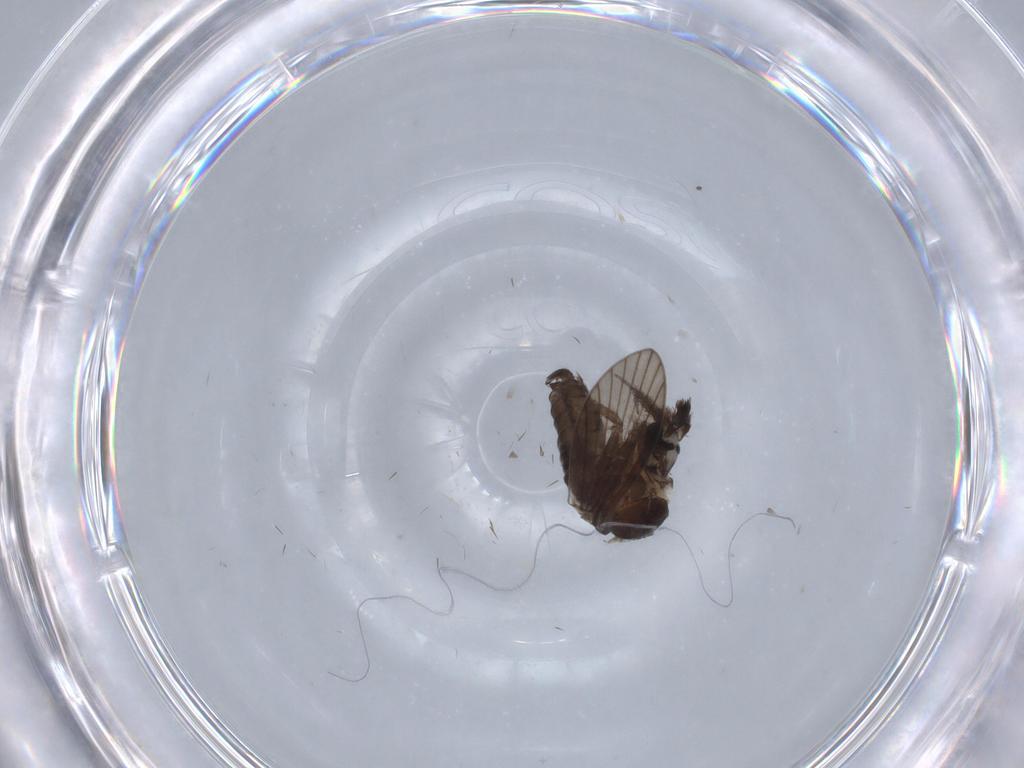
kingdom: Animalia
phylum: Arthropoda
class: Insecta
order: Diptera
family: Psychodidae
